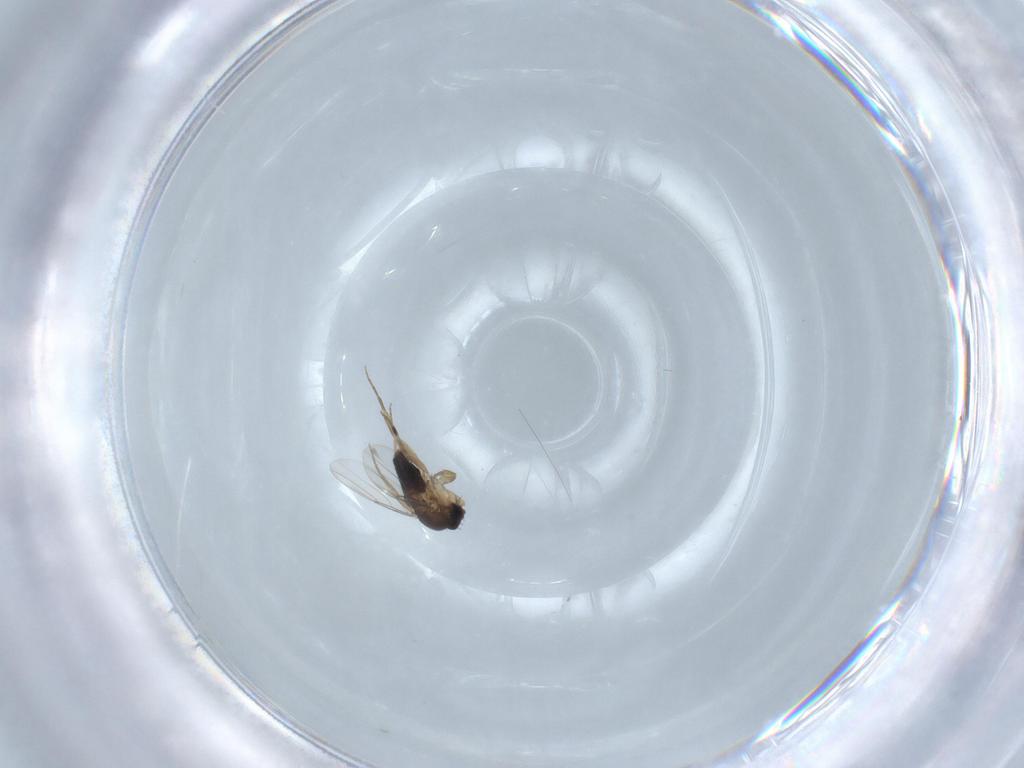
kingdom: Animalia
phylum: Arthropoda
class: Insecta
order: Diptera
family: Phoridae
